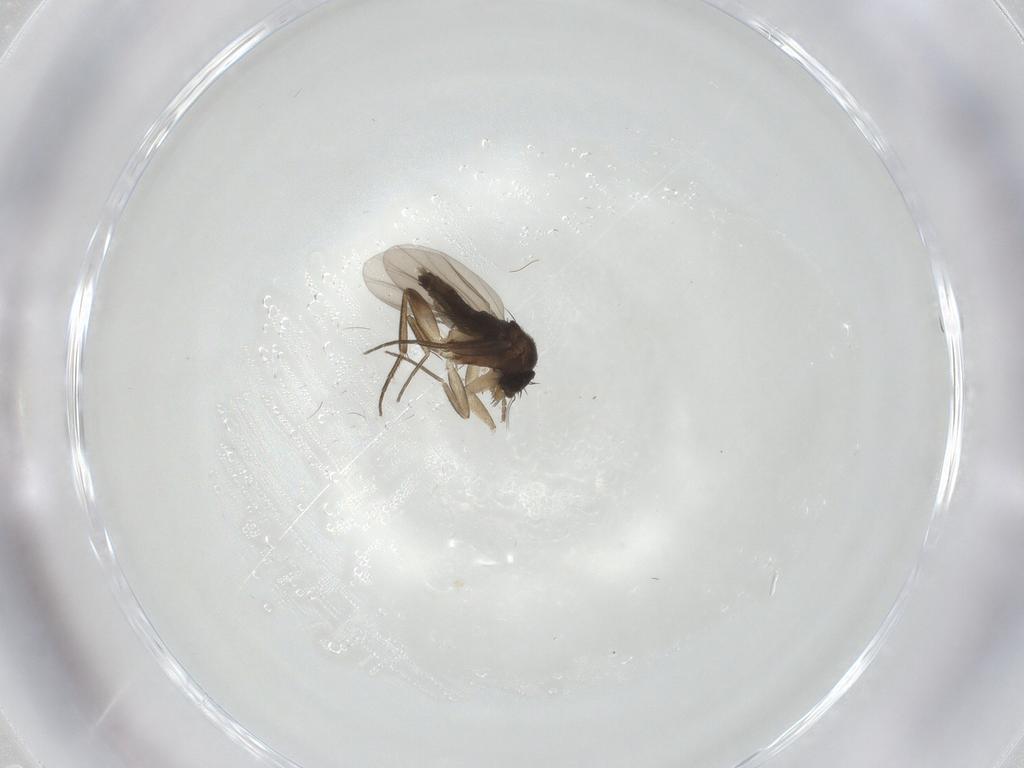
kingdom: Animalia
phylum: Arthropoda
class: Insecta
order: Diptera
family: Phoridae
